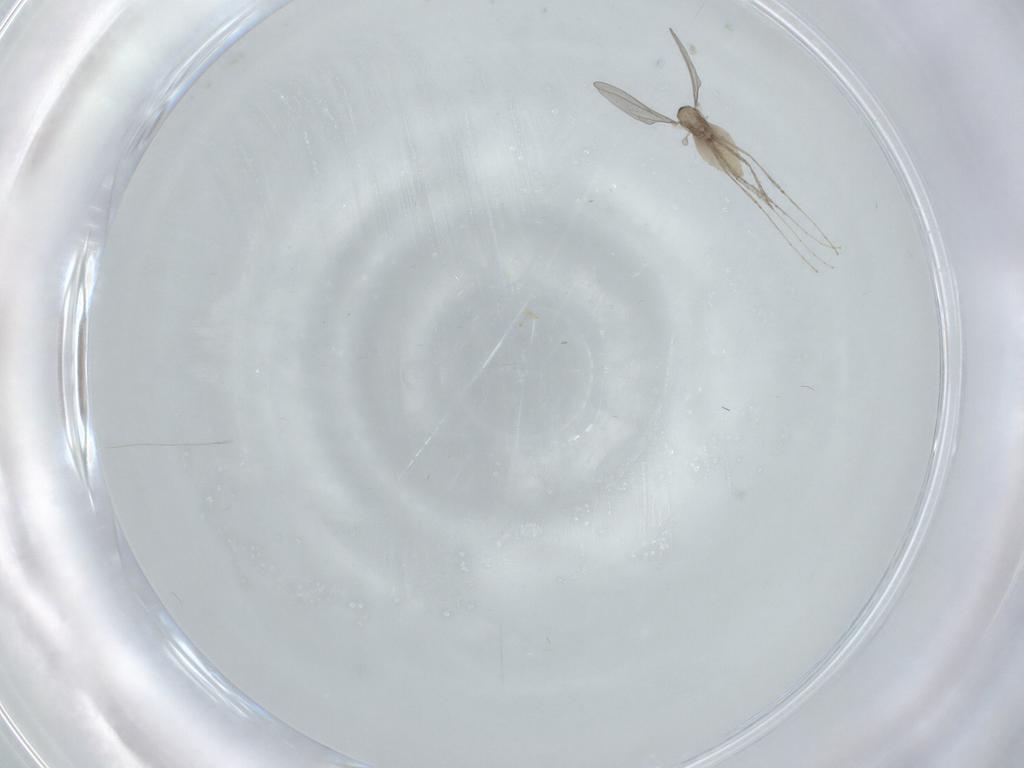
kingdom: Animalia
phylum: Arthropoda
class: Insecta
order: Diptera
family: Cecidomyiidae
